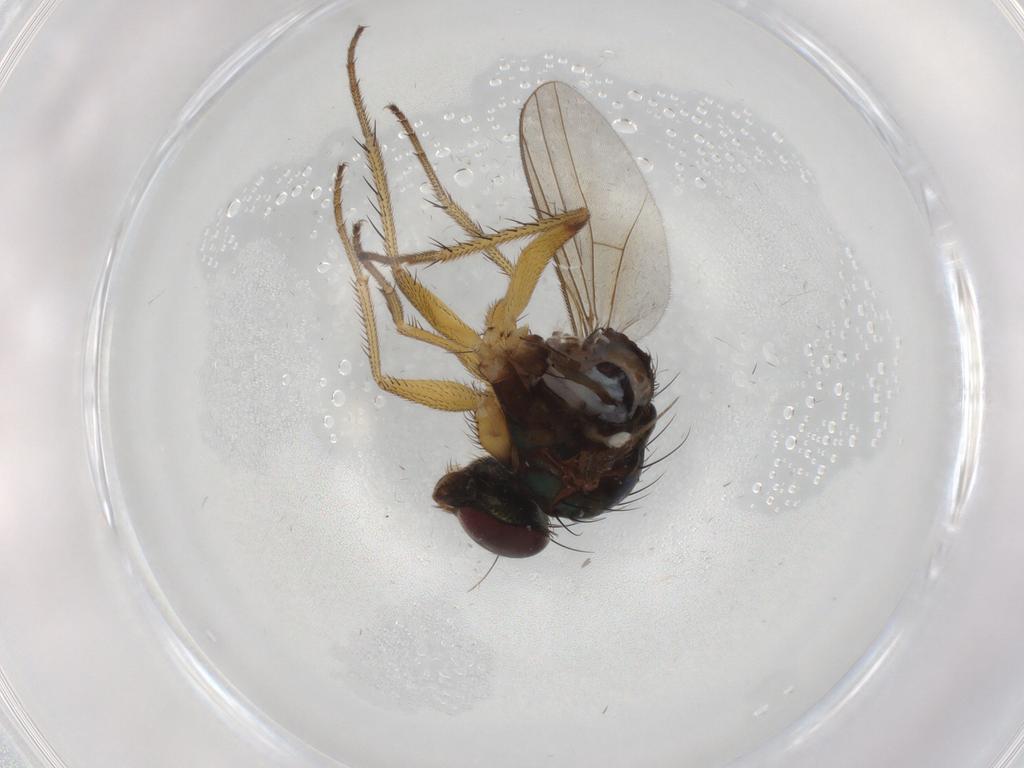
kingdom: Animalia
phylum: Arthropoda
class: Insecta
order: Diptera
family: Dolichopodidae
